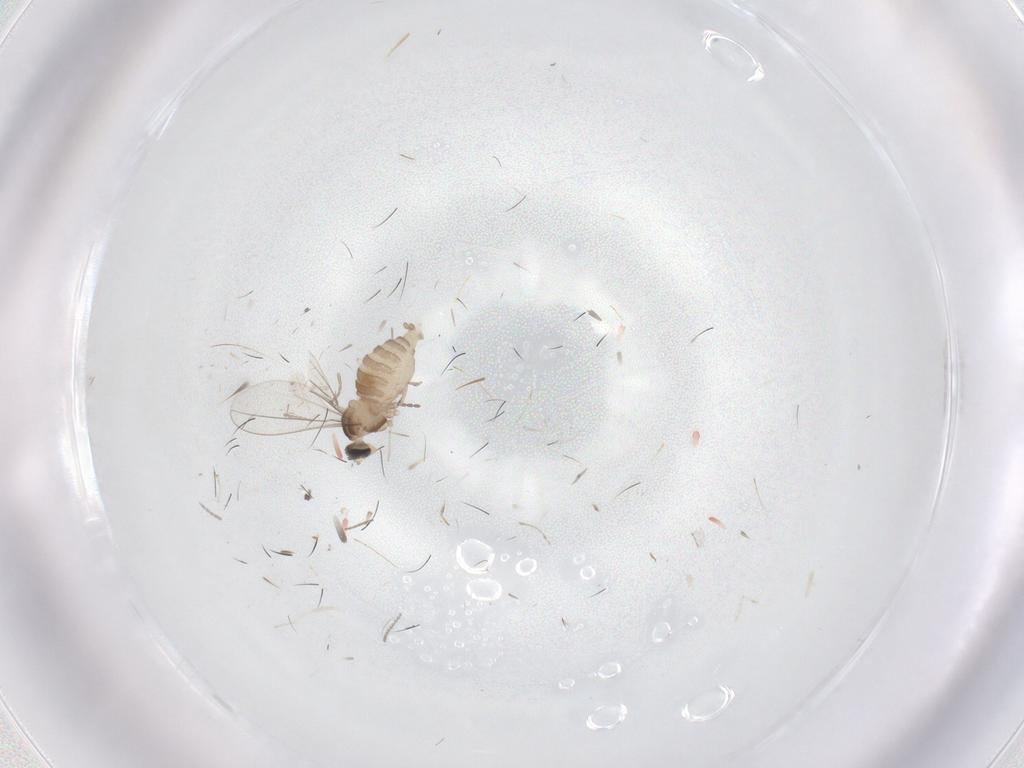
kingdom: Animalia
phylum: Arthropoda
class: Insecta
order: Diptera
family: Cecidomyiidae
